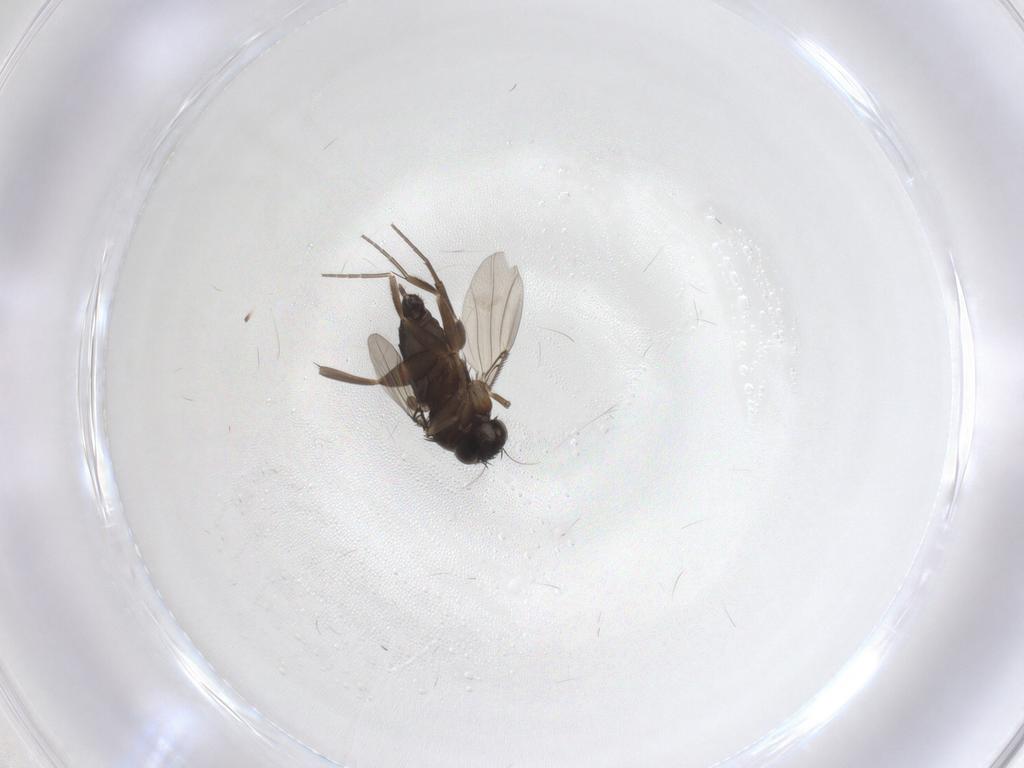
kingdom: Animalia
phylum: Arthropoda
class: Insecta
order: Diptera
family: Phoridae
